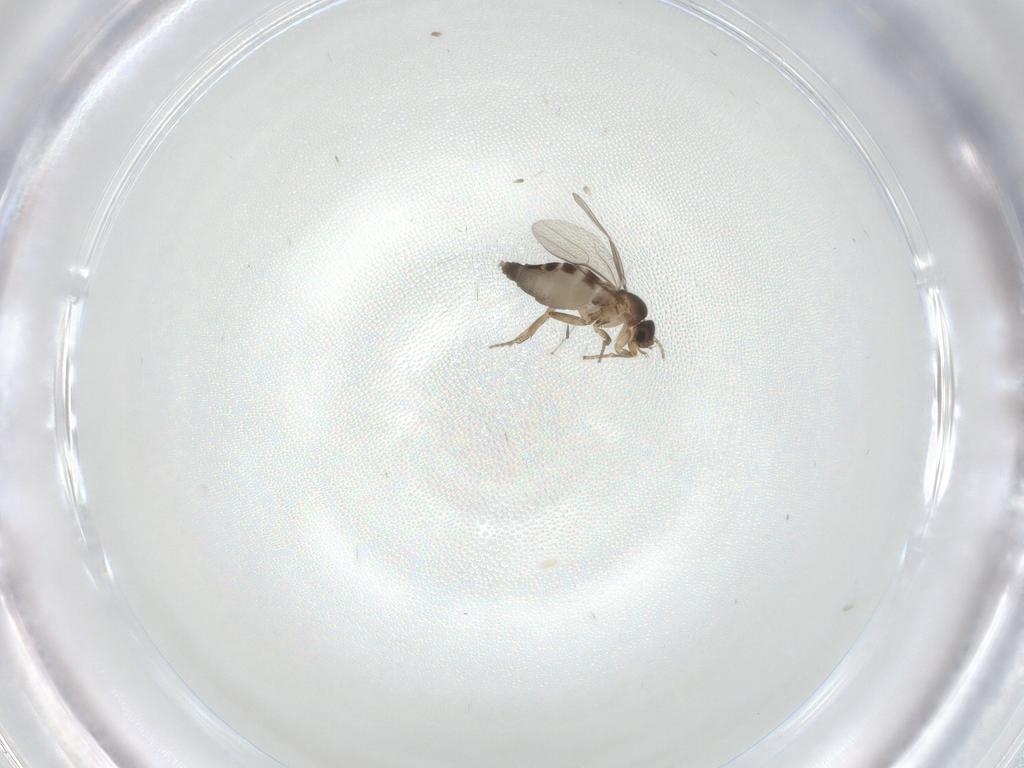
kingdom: Animalia
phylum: Arthropoda
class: Insecta
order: Diptera
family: Phoridae
